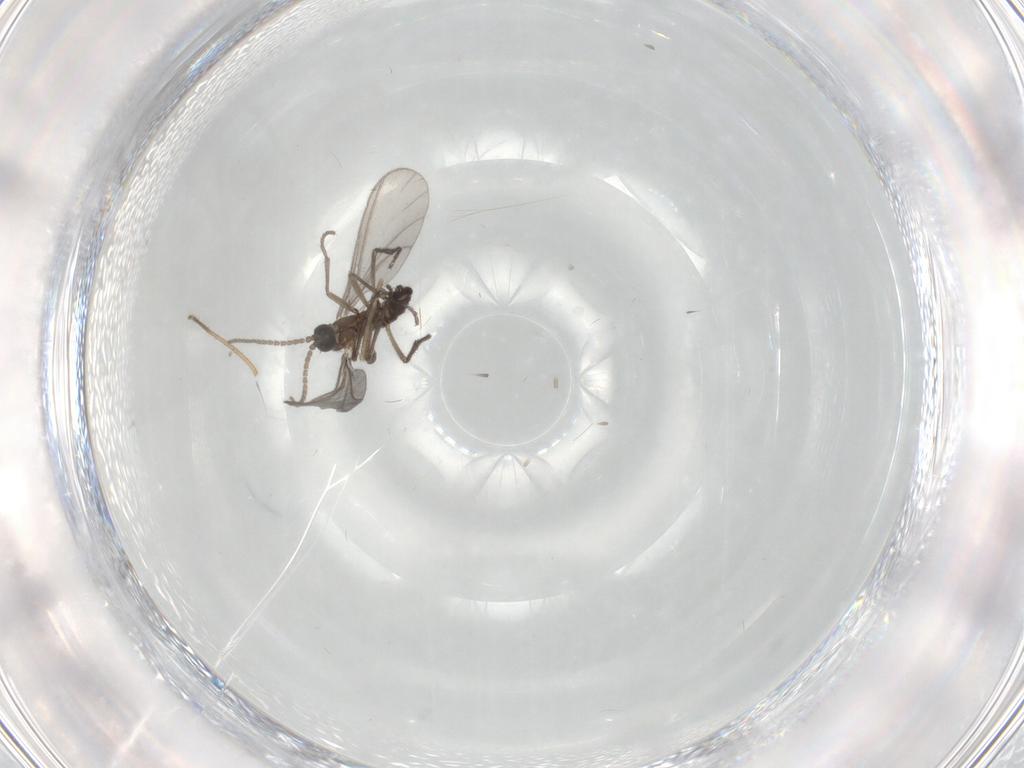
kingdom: Animalia
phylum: Arthropoda
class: Insecta
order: Diptera
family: Sciaridae
